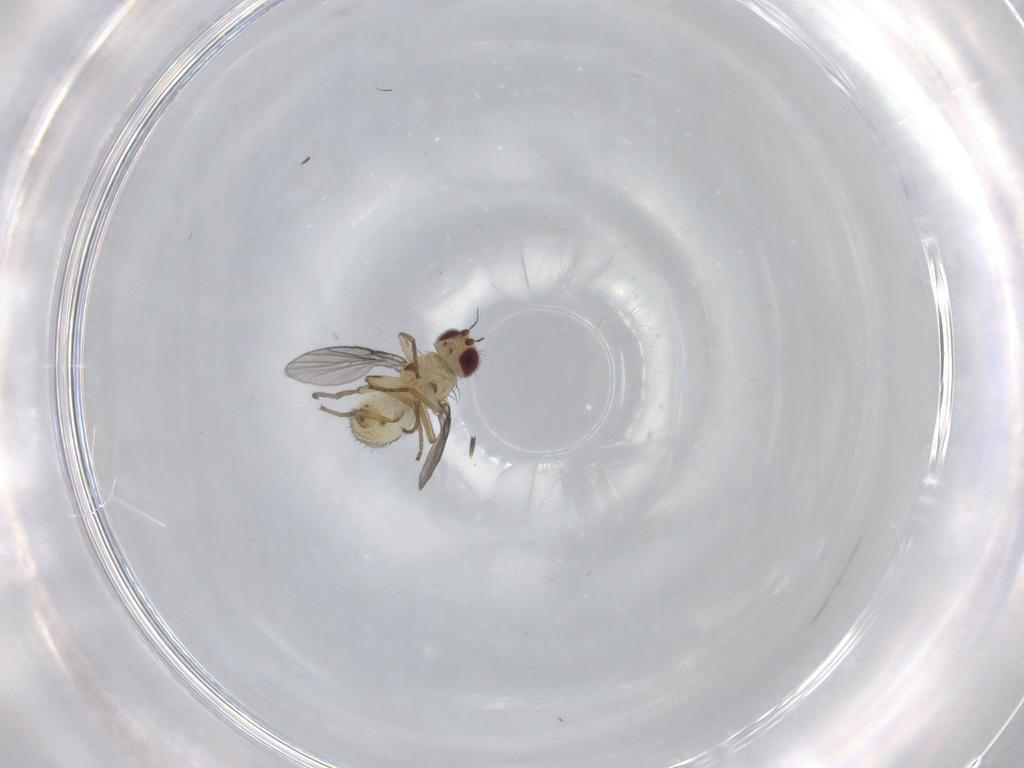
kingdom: Animalia
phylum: Arthropoda
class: Insecta
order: Diptera
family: Agromyzidae
